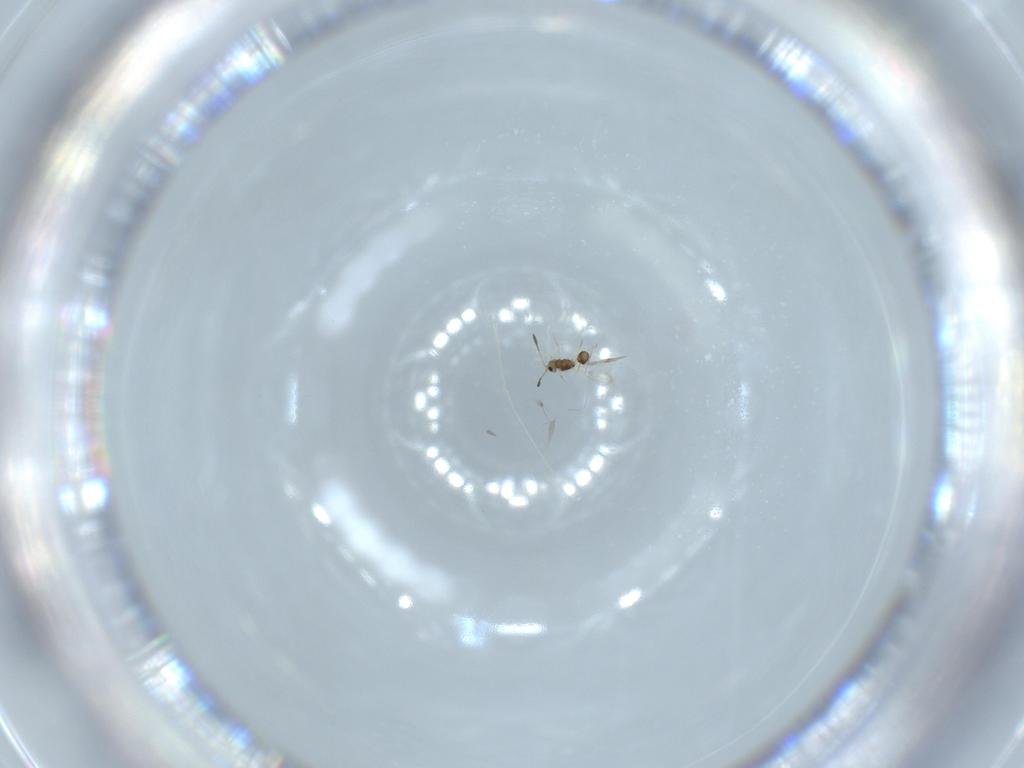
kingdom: Animalia
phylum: Arthropoda
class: Insecta
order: Hymenoptera
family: Mymarommatidae
